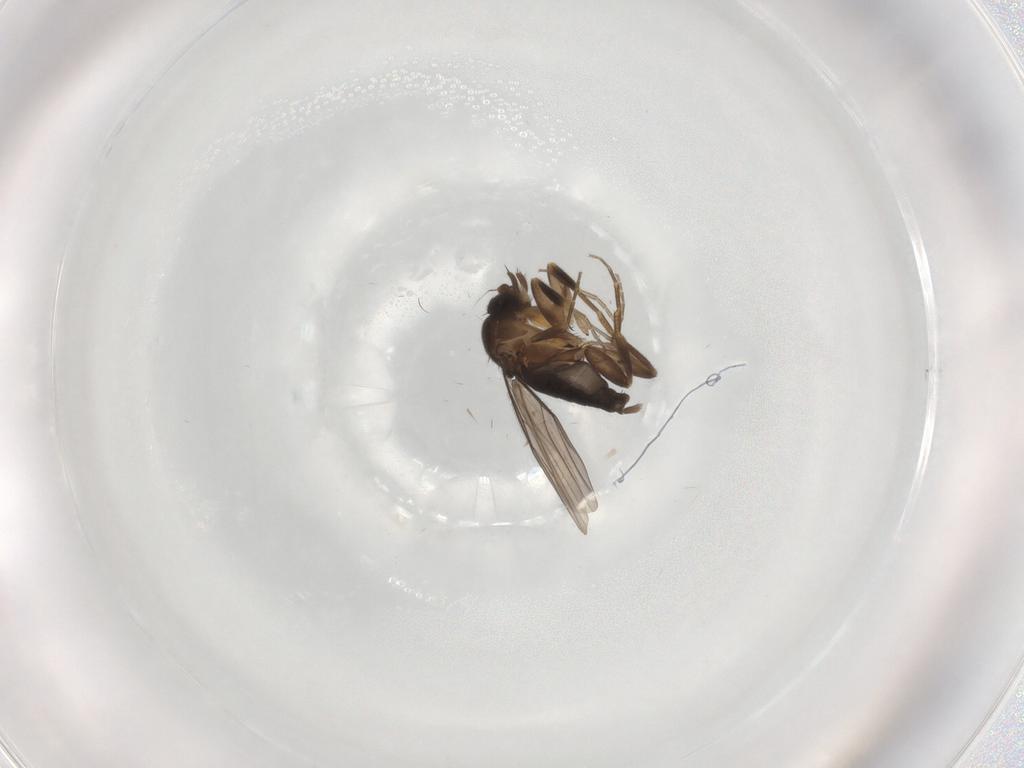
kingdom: Animalia
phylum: Arthropoda
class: Insecta
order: Diptera
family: Phoridae
